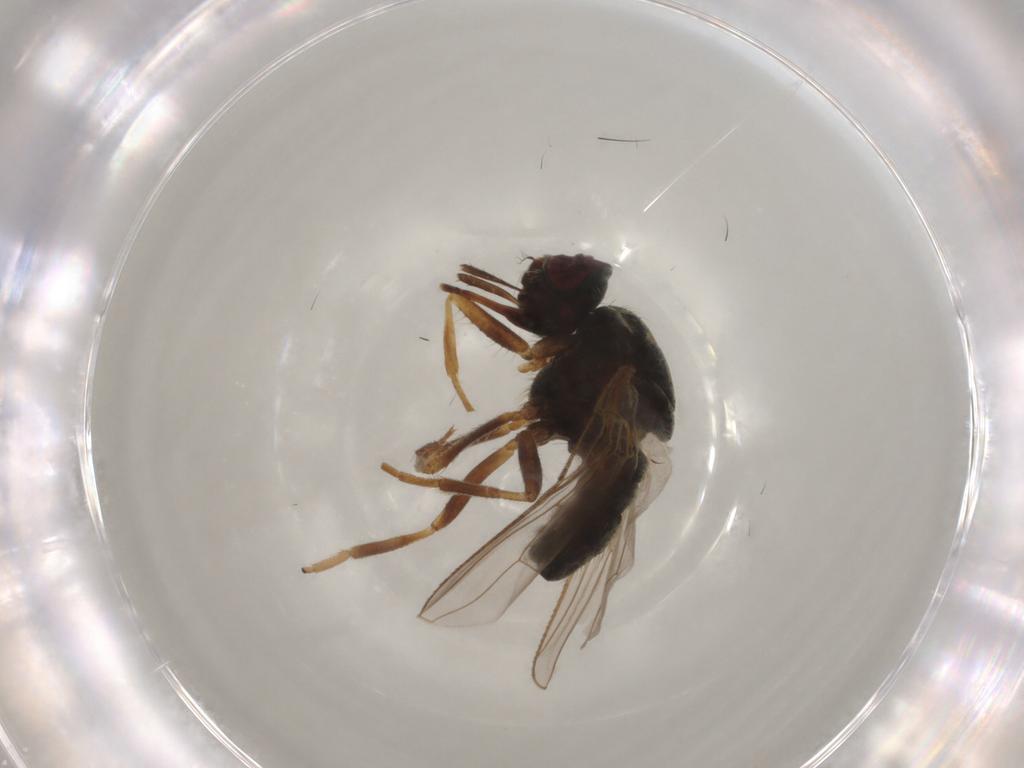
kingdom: Animalia
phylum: Arthropoda
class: Insecta
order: Diptera
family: Muscidae
